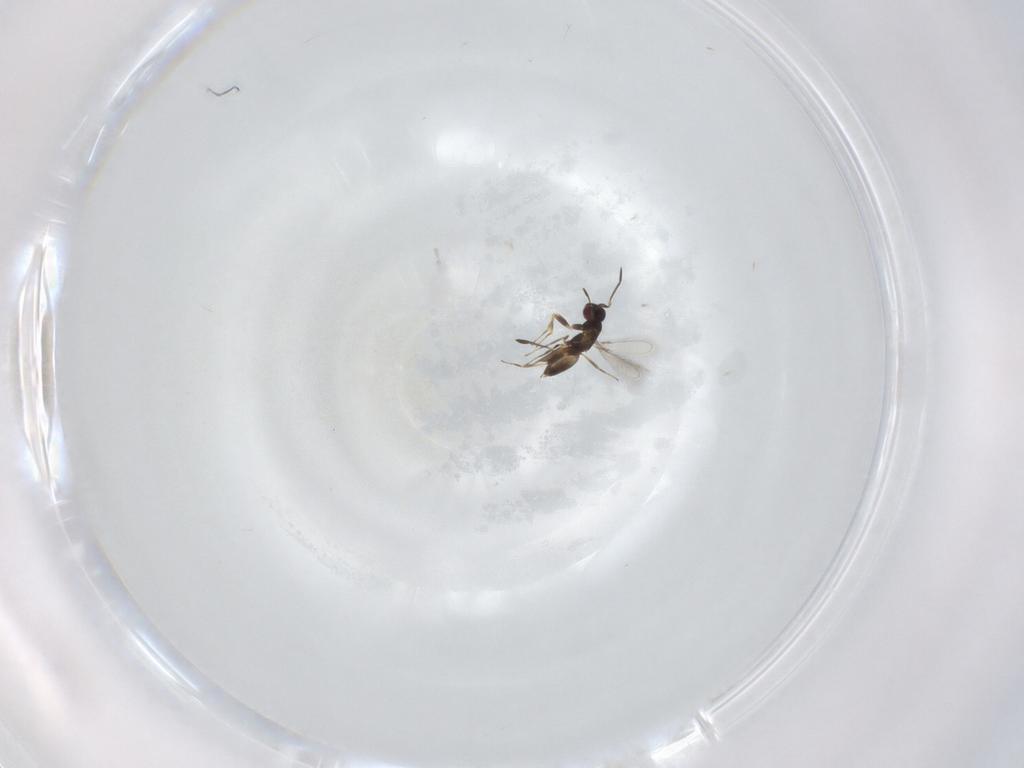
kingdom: Animalia
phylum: Arthropoda
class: Insecta
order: Hymenoptera
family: Mymaridae
